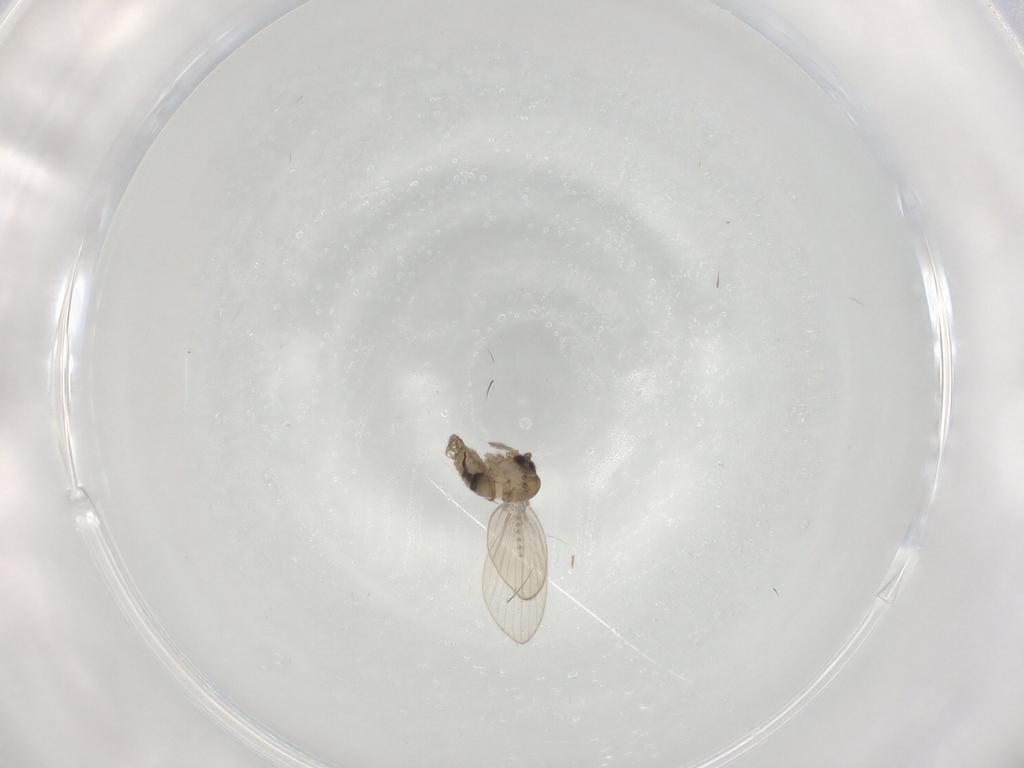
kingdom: Animalia
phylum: Arthropoda
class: Insecta
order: Diptera
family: Psychodidae
